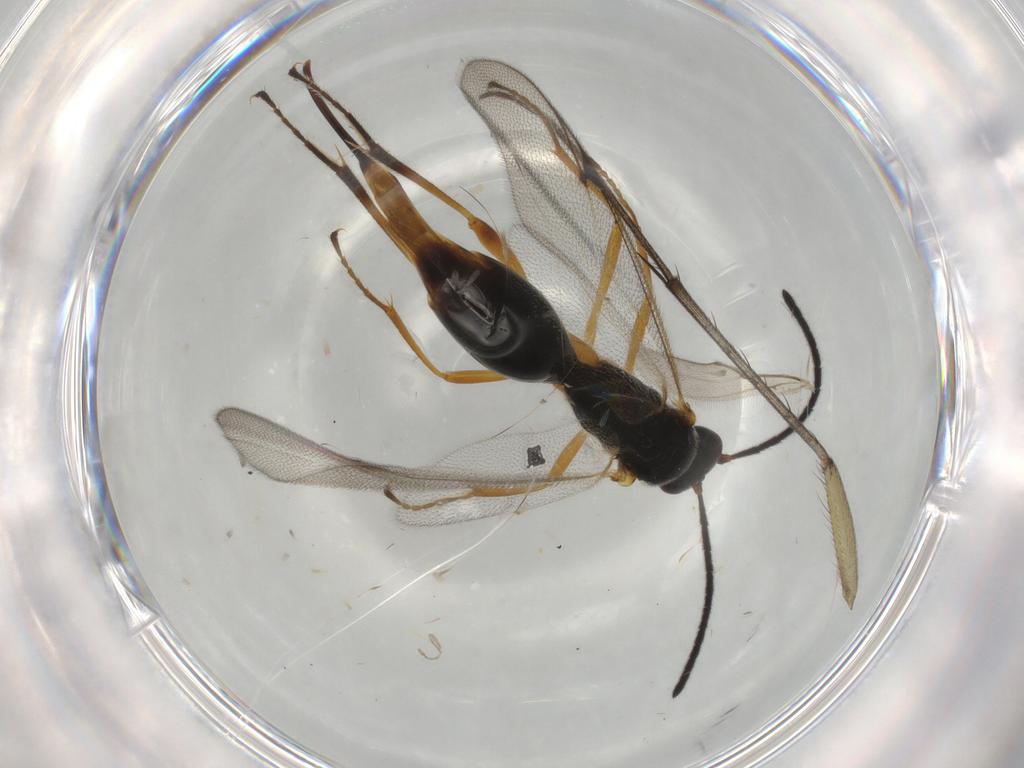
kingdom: Animalia
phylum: Arthropoda
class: Insecta
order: Hymenoptera
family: Proctotrupidae
